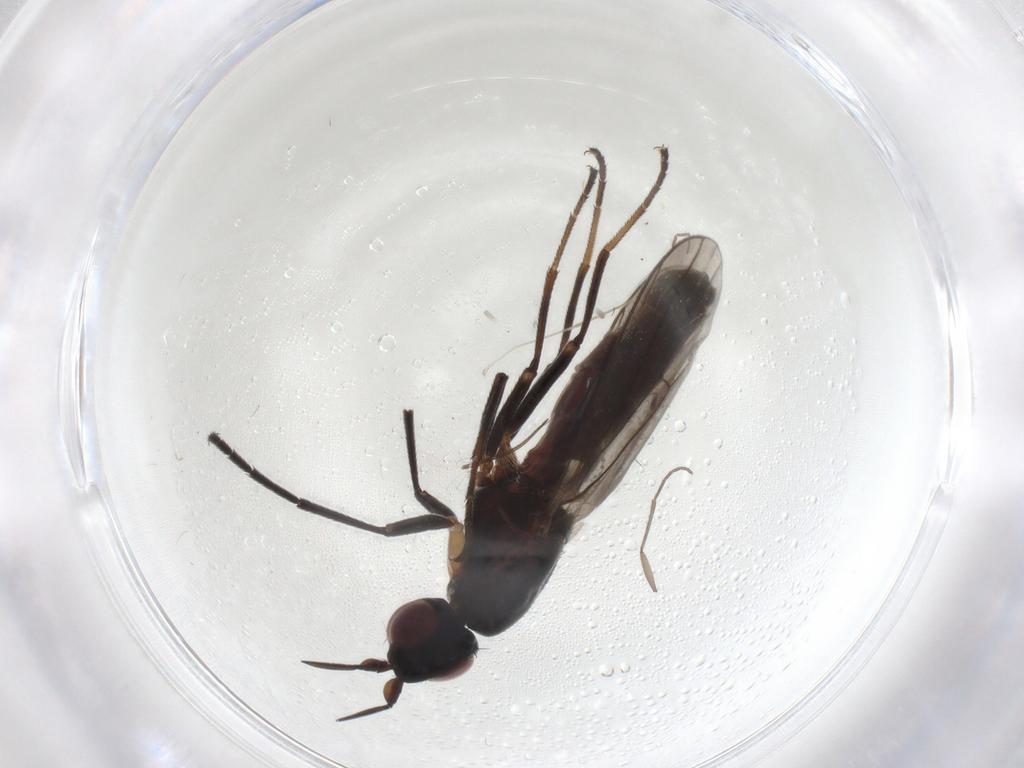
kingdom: Animalia
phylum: Arthropoda
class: Insecta
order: Diptera
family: Chloropidae
